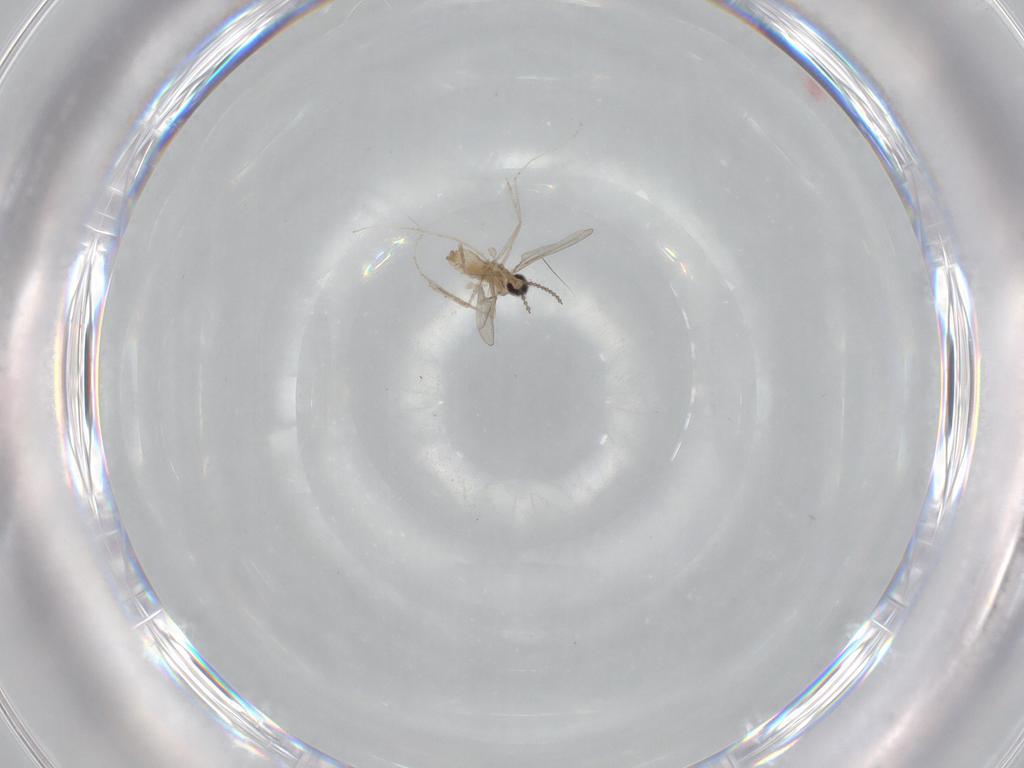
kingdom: Animalia
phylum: Arthropoda
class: Insecta
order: Diptera
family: Cecidomyiidae
